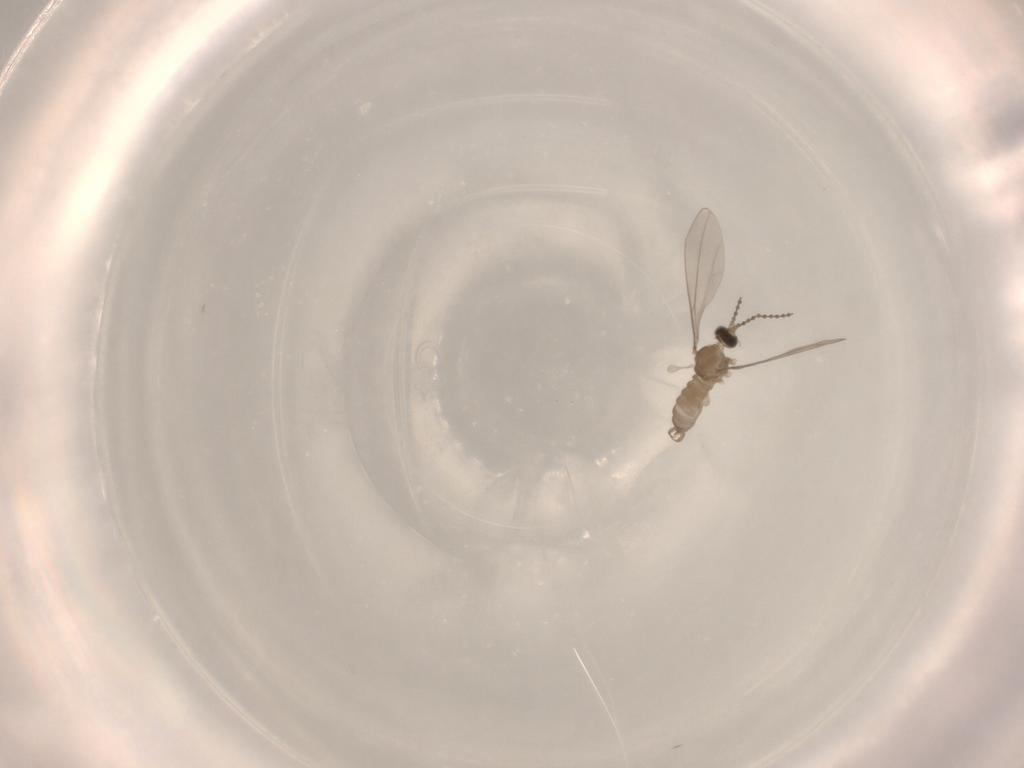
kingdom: Animalia
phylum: Arthropoda
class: Insecta
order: Diptera
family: Cecidomyiidae
